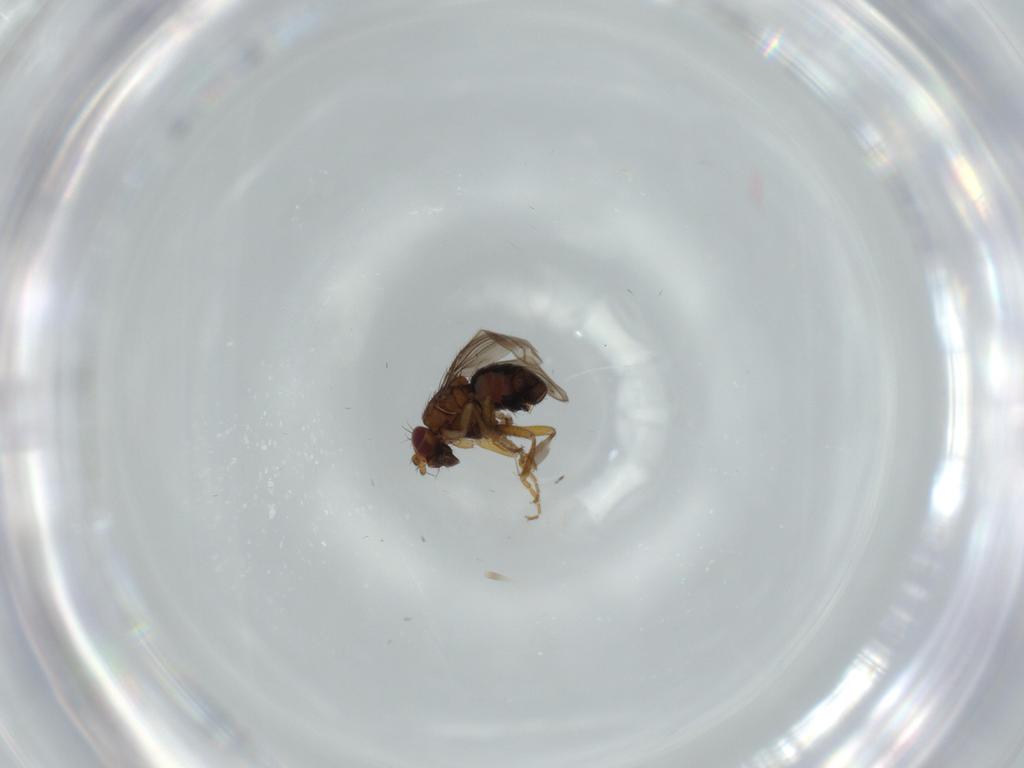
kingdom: Animalia
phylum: Arthropoda
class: Insecta
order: Diptera
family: Sphaeroceridae
